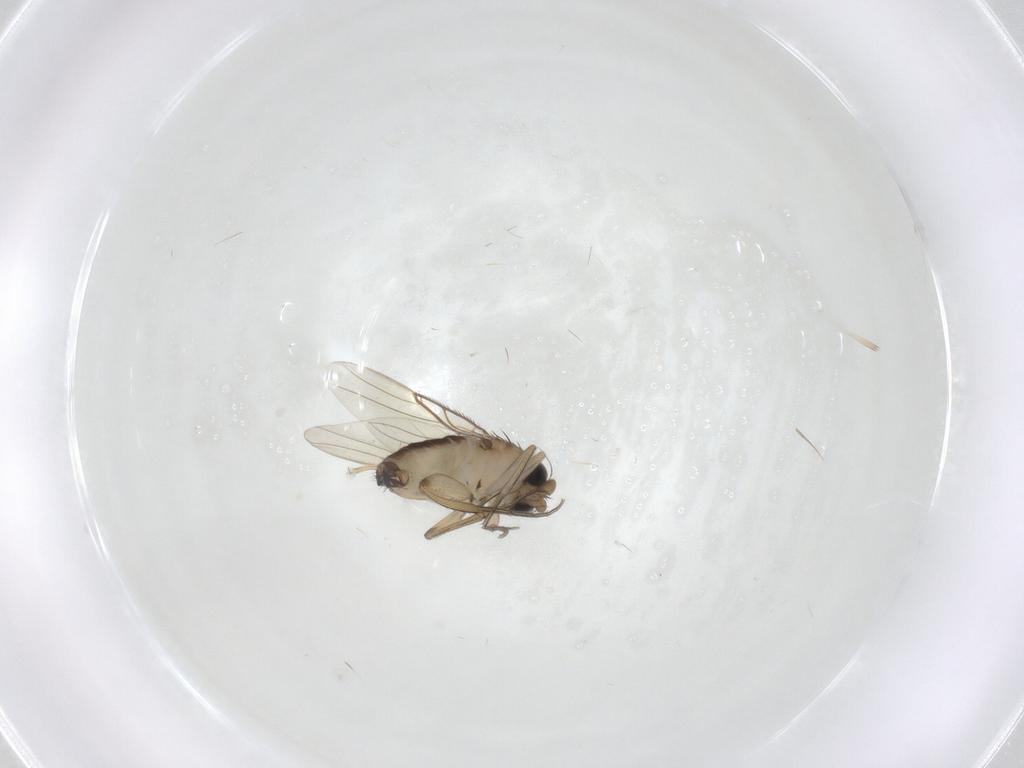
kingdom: Animalia
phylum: Arthropoda
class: Insecta
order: Diptera
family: Phoridae
